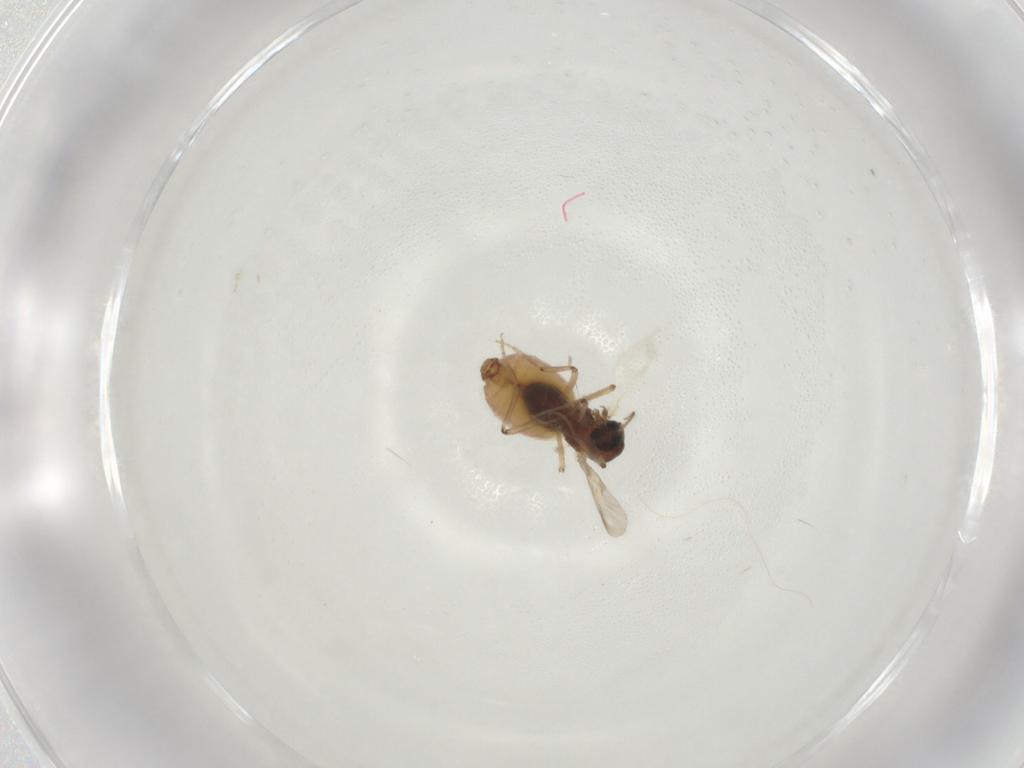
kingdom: Animalia
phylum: Arthropoda
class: Insecta
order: Diptera
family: Ceratopogonidae
